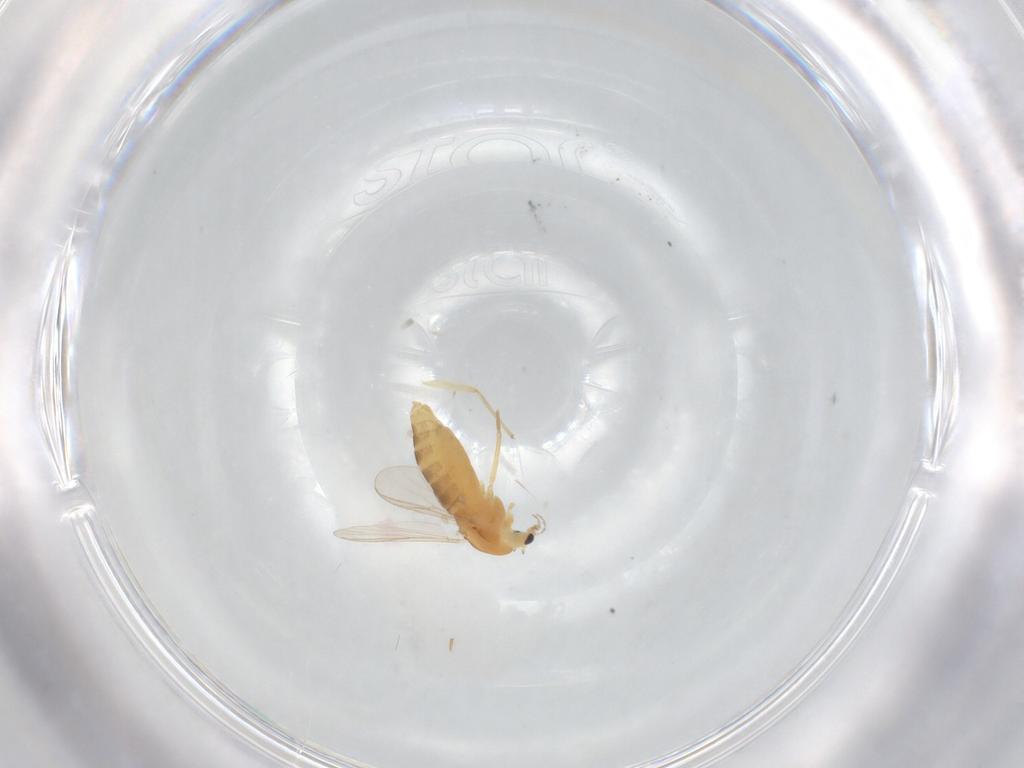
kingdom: Animalia
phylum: Arthropoda
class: Insecta
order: Diptera
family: Chironomidae
